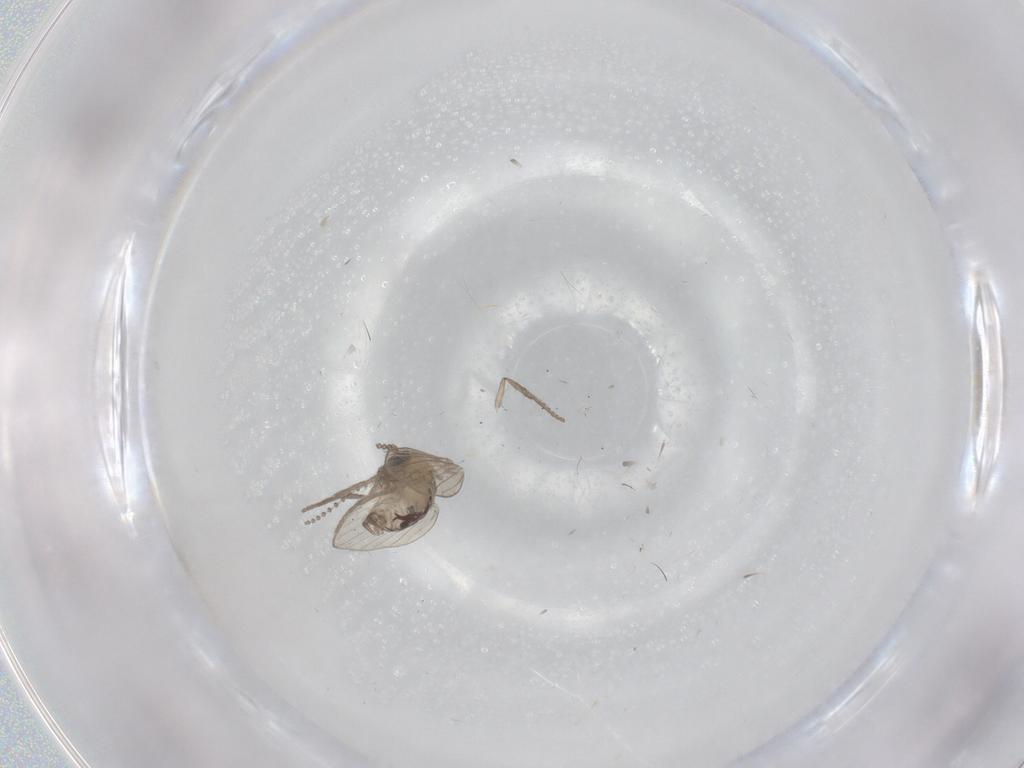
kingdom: Animalia
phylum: Arthropoda
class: Insecta
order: Diptera
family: Psychodidae
